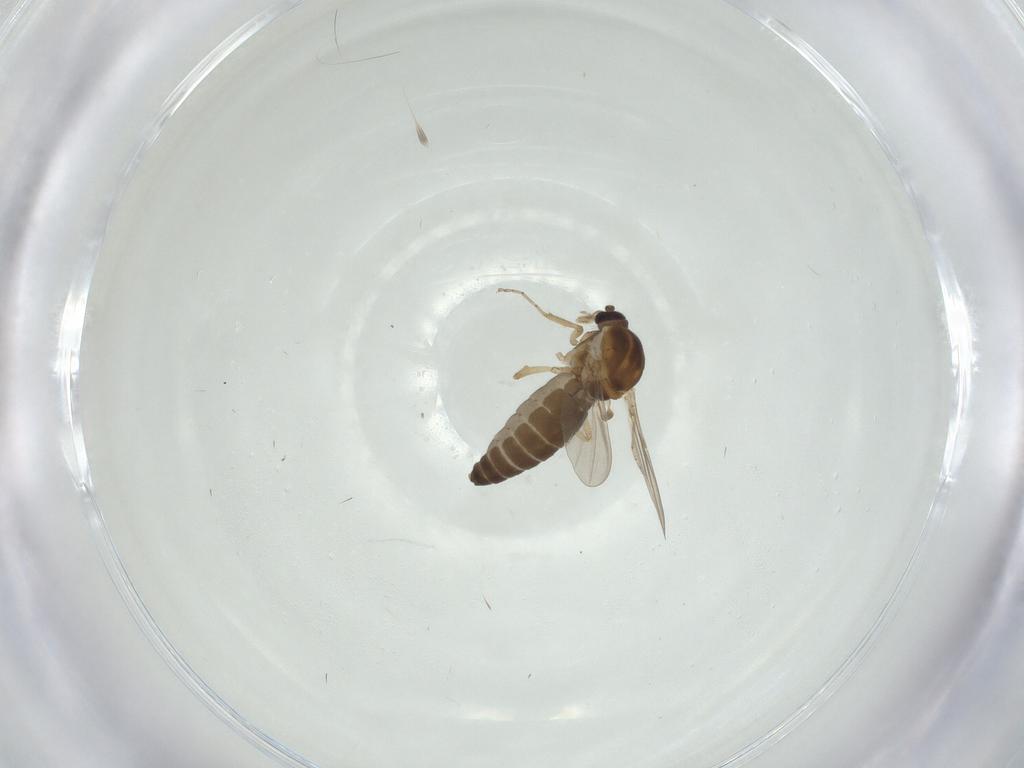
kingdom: Animalia
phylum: Arthropoda
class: Insecta
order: Diptera
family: Ceratopogonidae
